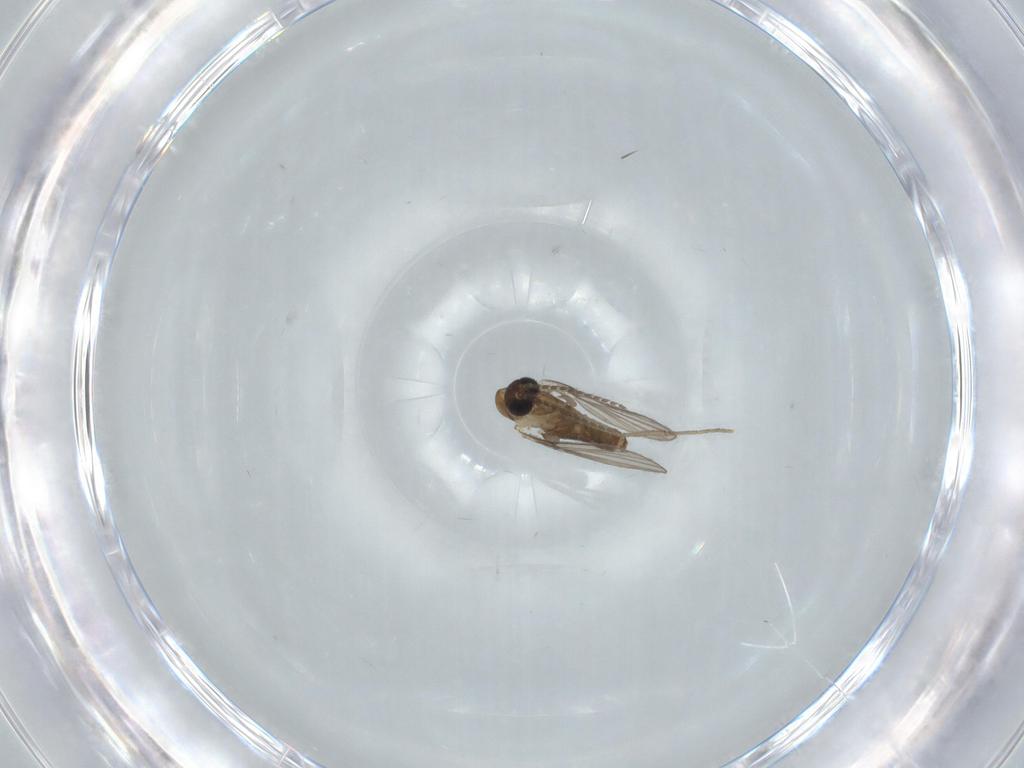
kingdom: Animalia
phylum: Arthropoda
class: Insecta
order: Diptera
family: Psychodidae
